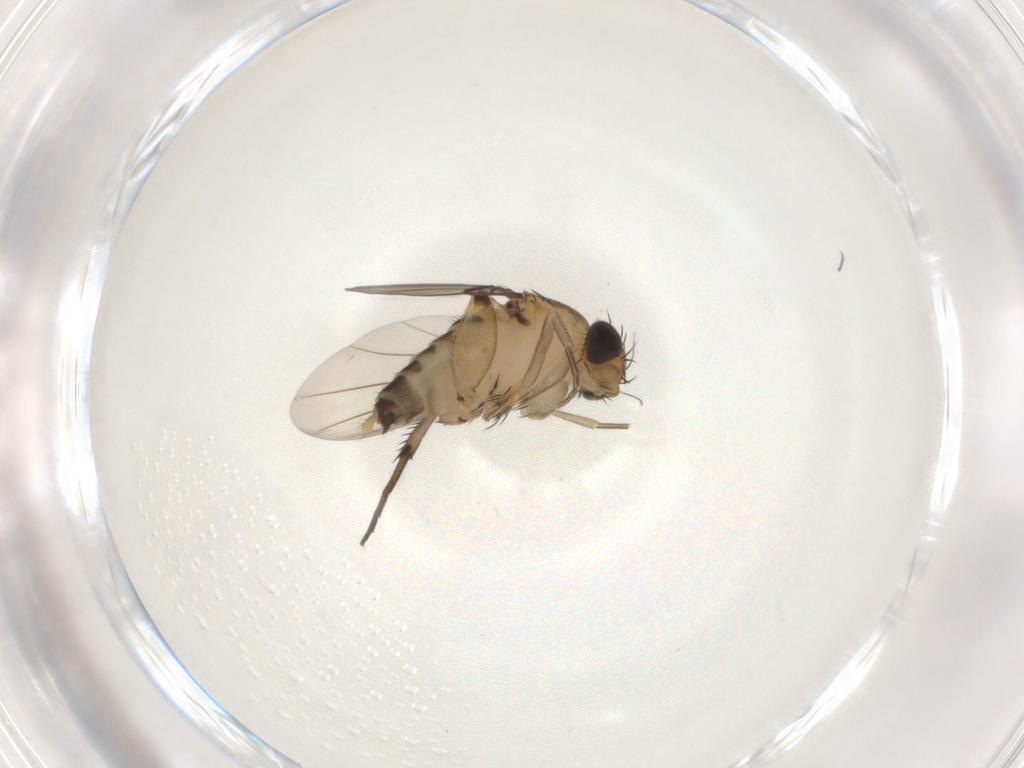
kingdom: Animalia
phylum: Arthropoda
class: Insecta
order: Diptera
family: Phoridae
